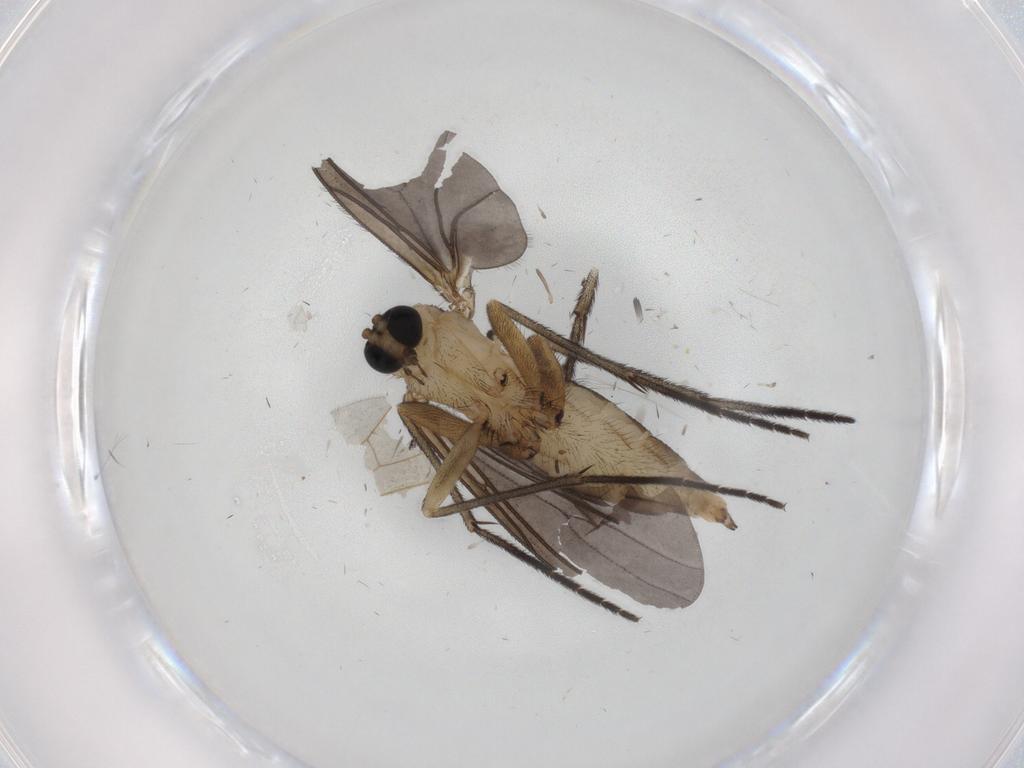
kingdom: Animalia
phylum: Arthropoda
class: Insecta
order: Diptera
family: Sciaridae
